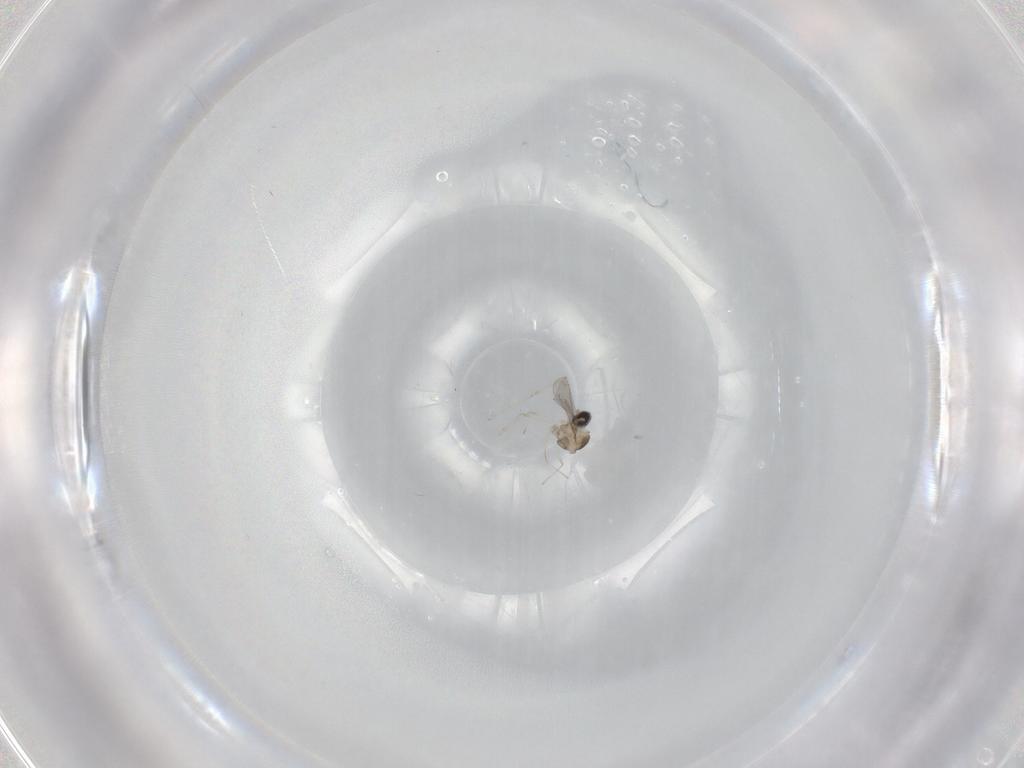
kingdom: Animalia
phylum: Arthropoda
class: Insecta
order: Diptera
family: Cecidomyiidae
